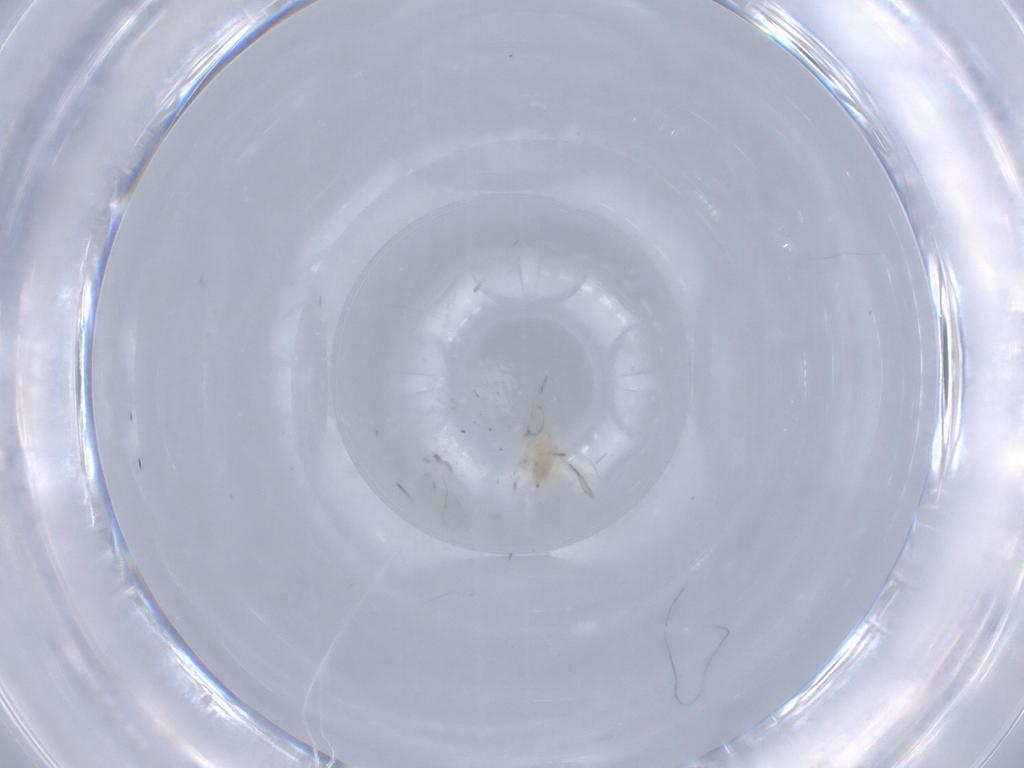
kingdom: Animalia
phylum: Arthropoda
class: Insecta
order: Hymenoptera
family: Aphelinidae
